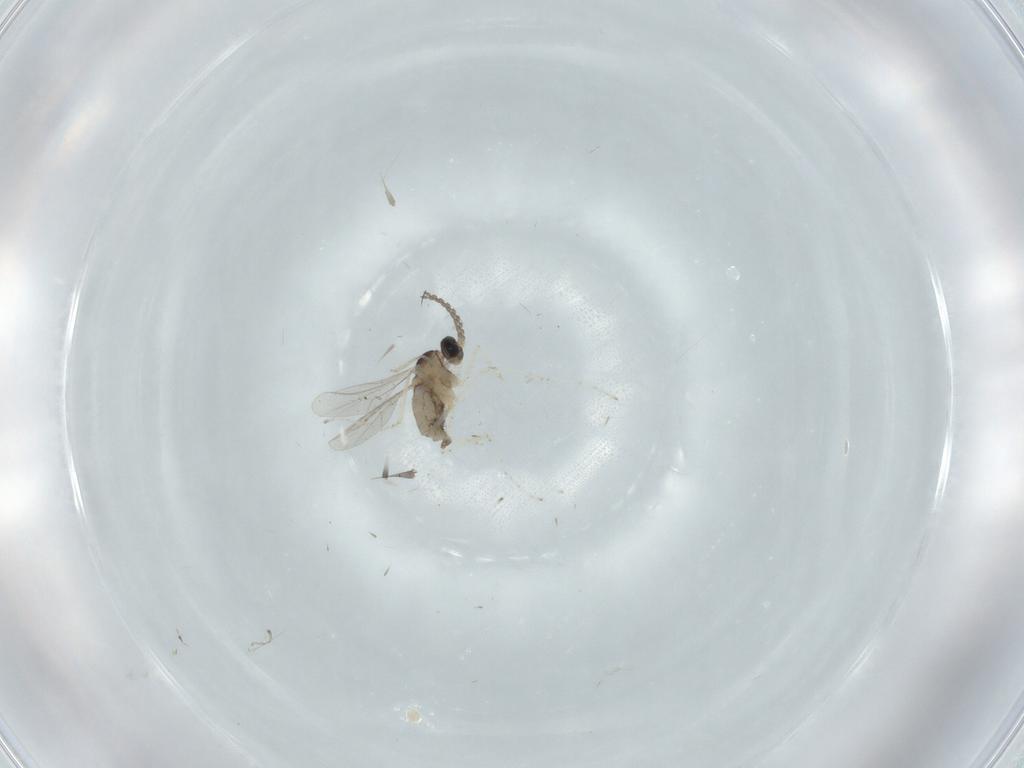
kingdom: Animalia
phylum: Arthropoda
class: Insecta
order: Diptera
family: Cecidomyiidae
